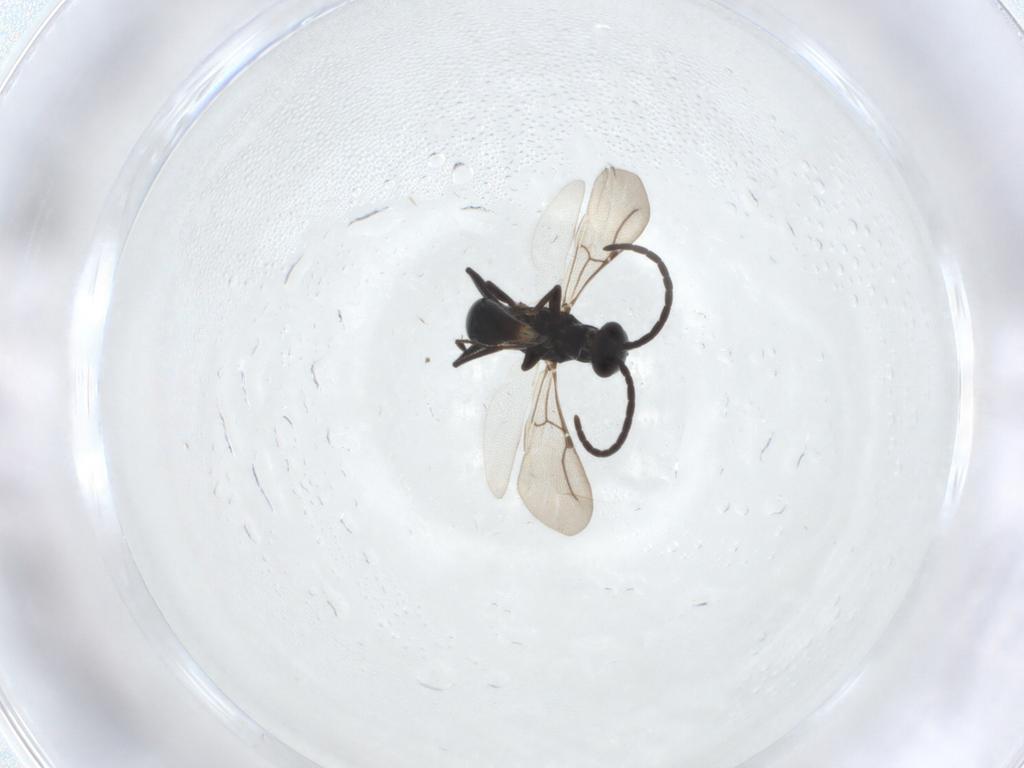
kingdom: Animalia
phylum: Arthropoda
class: Insecta
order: Hymenoptera
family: Bethylidae
